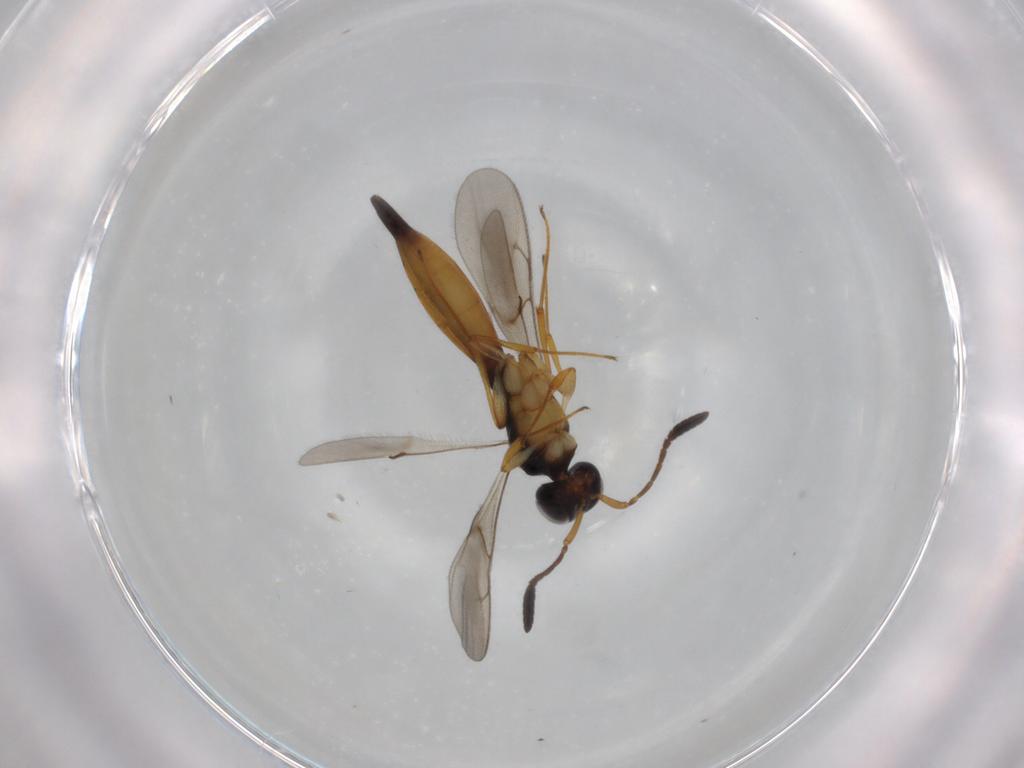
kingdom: Animalia
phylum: Arthropoda
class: Insecta
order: Hymenoptera
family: Scelionidae
